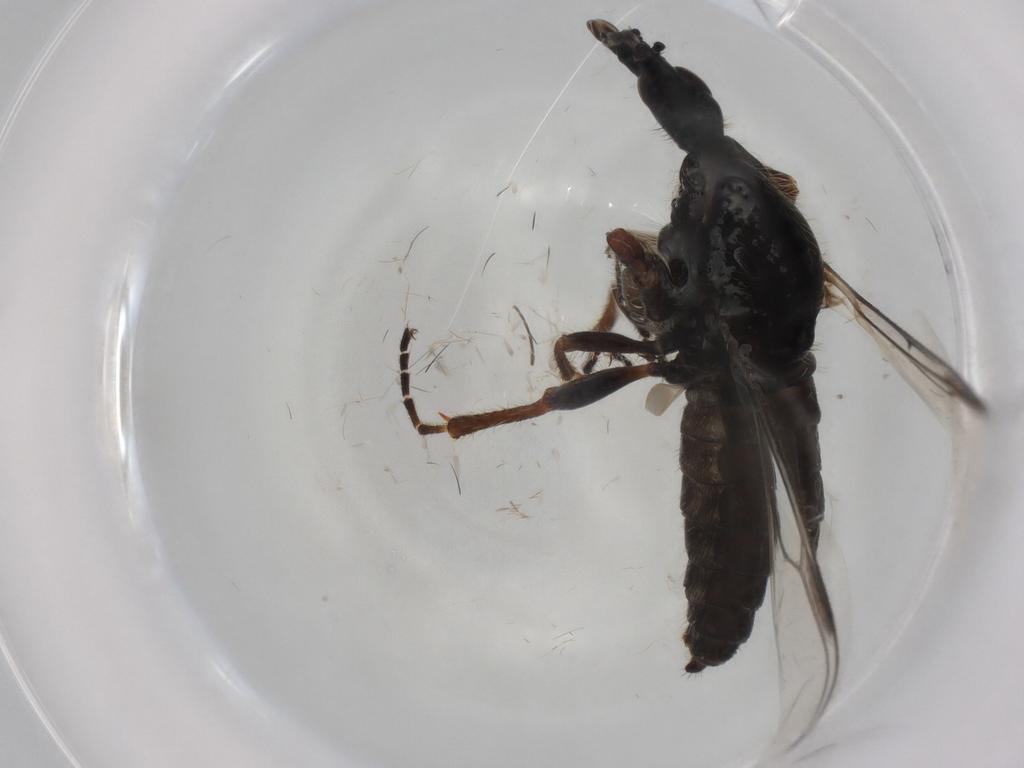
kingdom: Animalia
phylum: Arthropoda
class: Insecta
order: Diptera
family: Bibionidae
